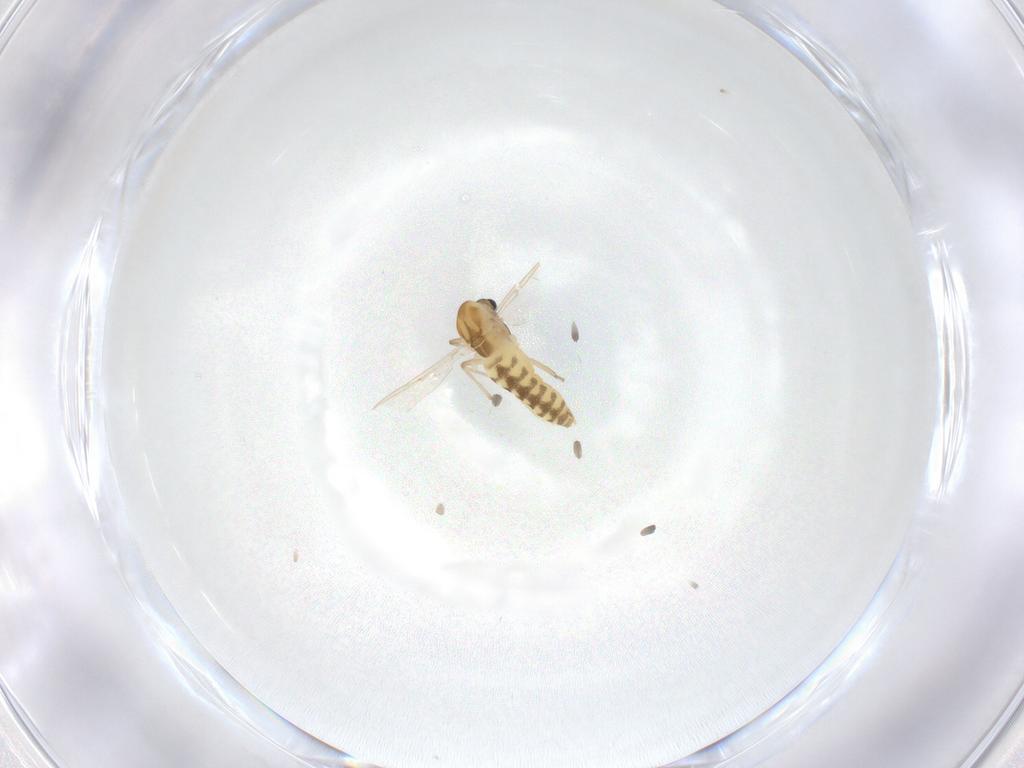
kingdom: Animalia
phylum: Arthropoda
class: Insecta
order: Diptera
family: Chironomidae
